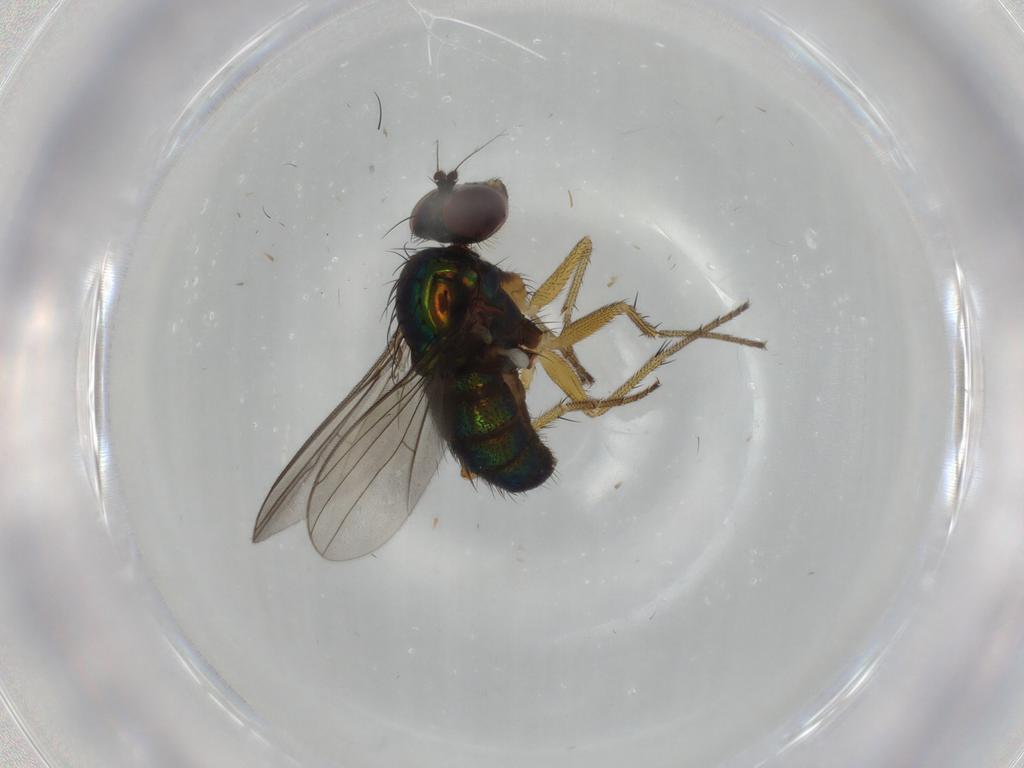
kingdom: Animalia
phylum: Arthropoda
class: Insecta
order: Diptera
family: Dolichopodidae
